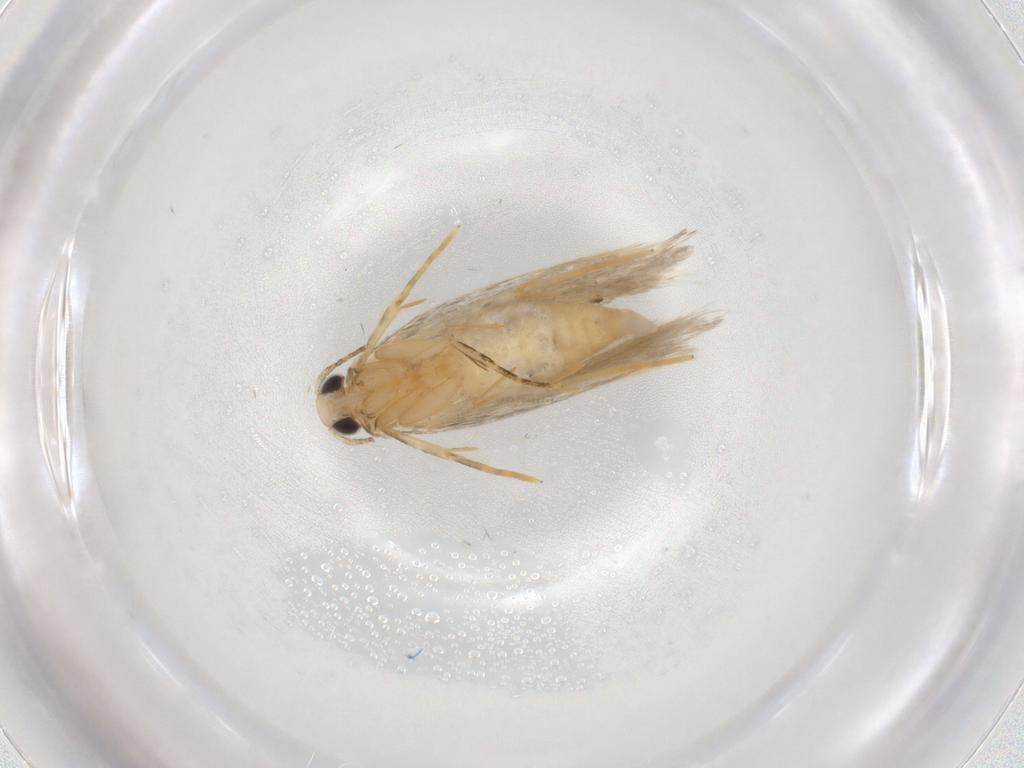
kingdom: Animalia
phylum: Arthropoda
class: Insecta
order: Lepidoptera
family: Autostichidae
